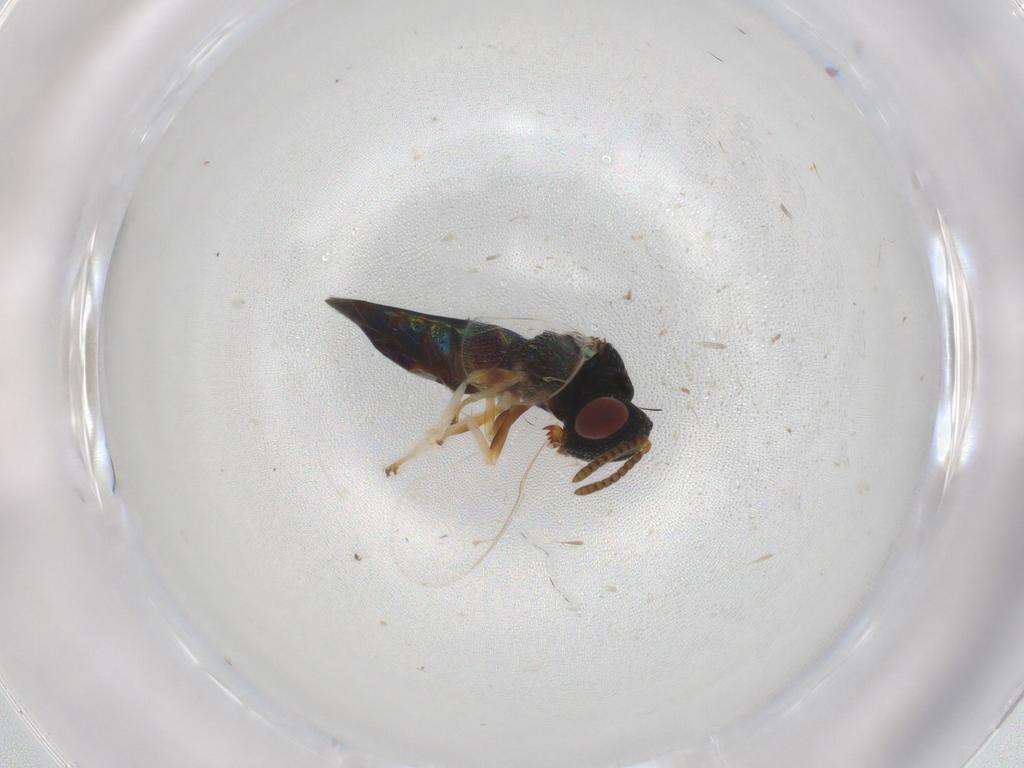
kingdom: Animalia
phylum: Arthropoda
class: Insecta
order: Hymenoptera
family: Pteromalidae
